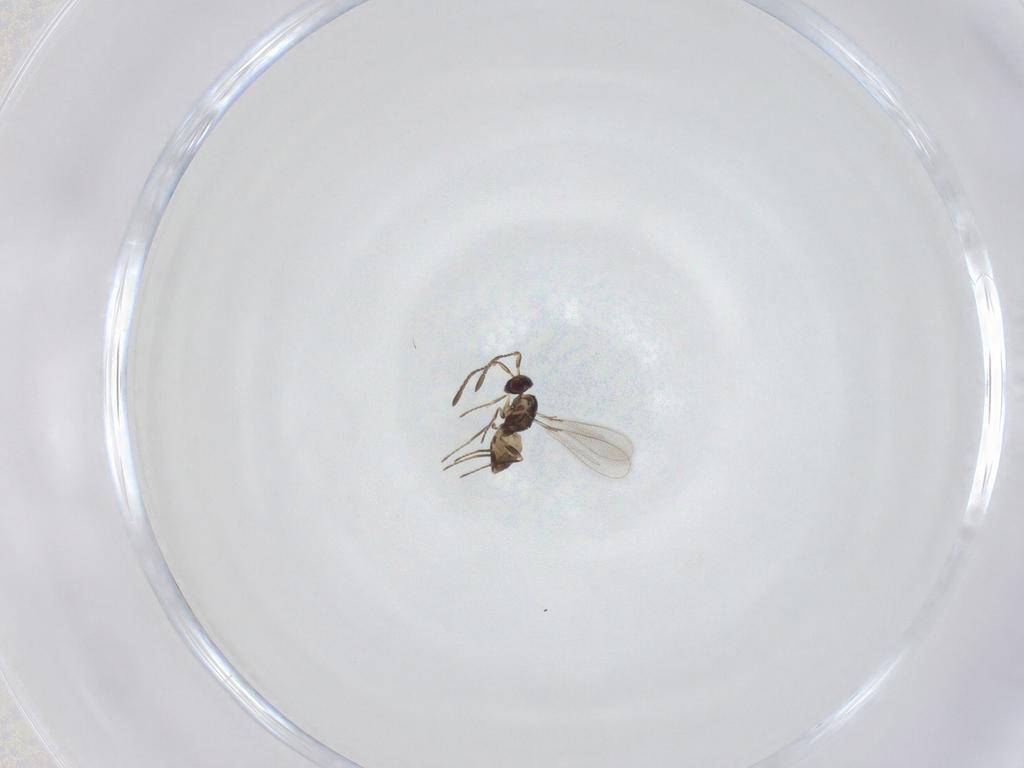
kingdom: Animalia
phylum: Arthropoda
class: Insecta
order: Hymenoptera
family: Mymaridae
